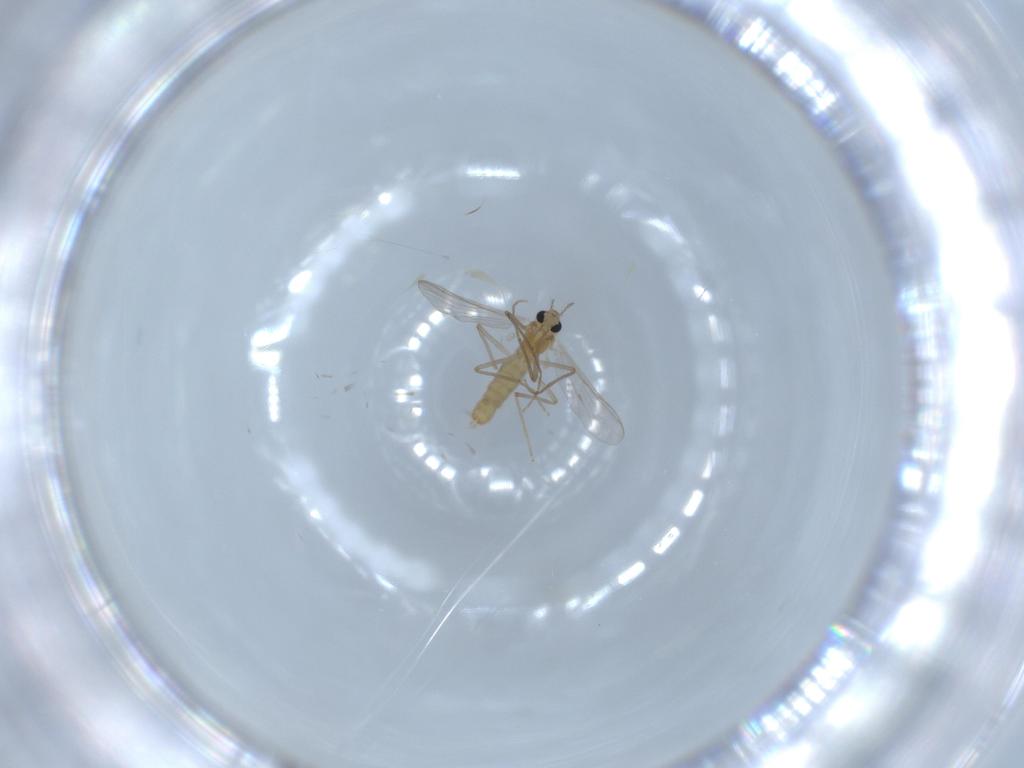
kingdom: Animalia
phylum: Arthropoda
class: Insecta
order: Diptera
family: Chironomidae
